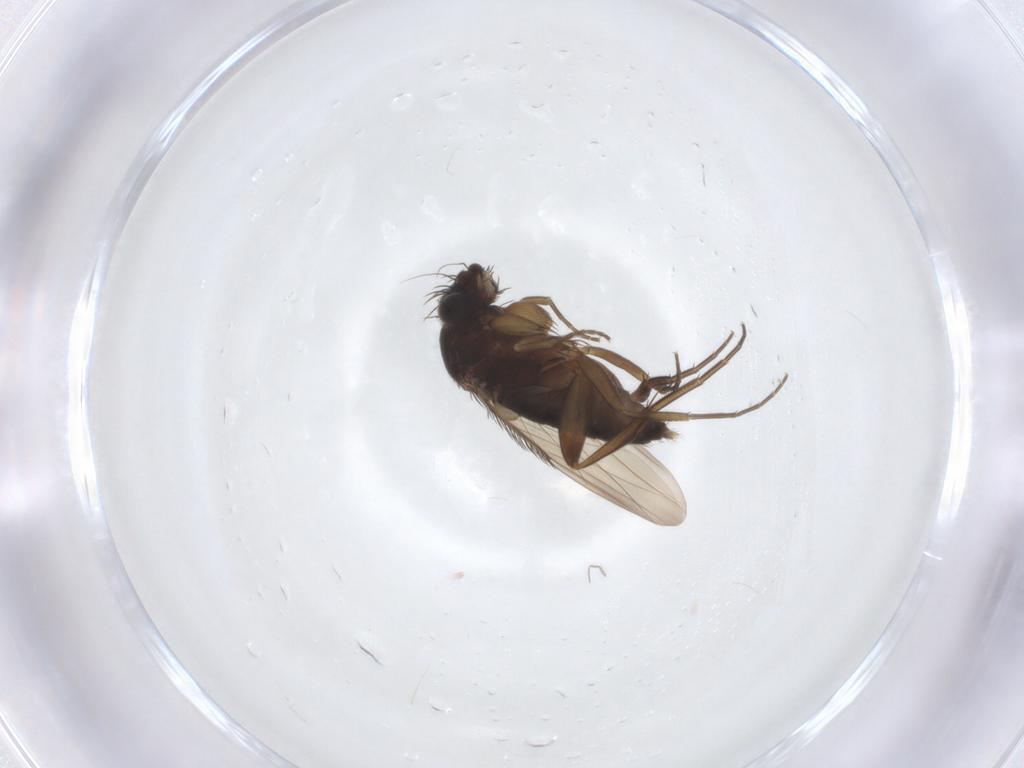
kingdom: Animalia
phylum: Arthropoda
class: Insecta
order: Diptera
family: Phoridae
